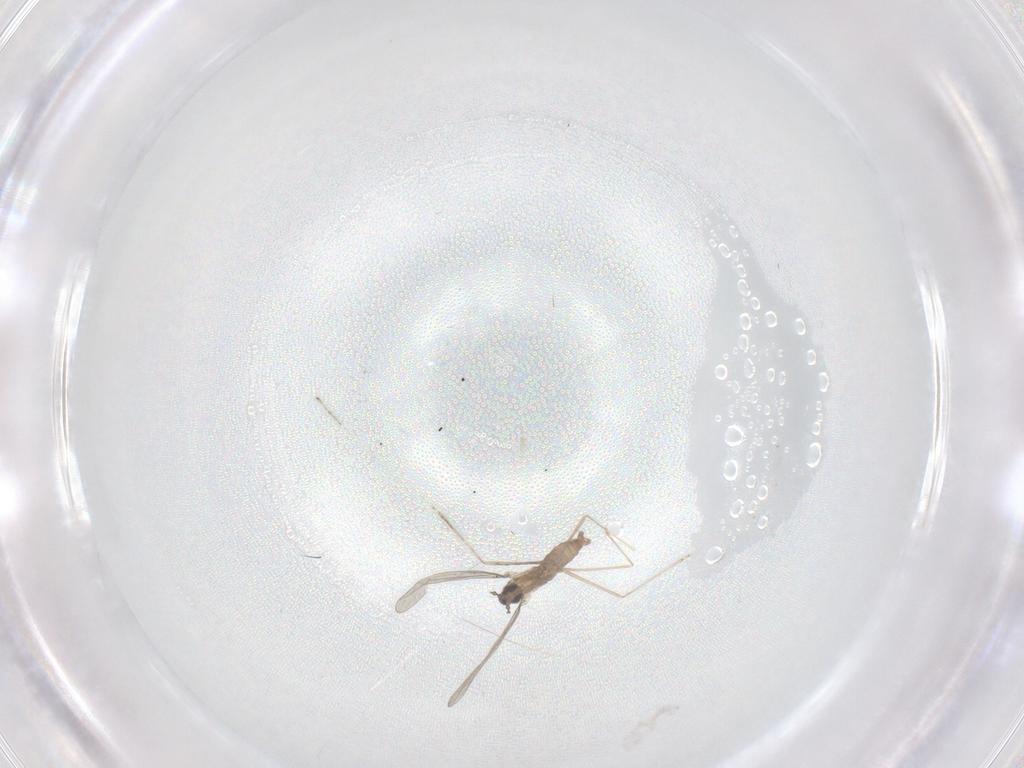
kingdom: Animalia
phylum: Arthropoda
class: Insecta
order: Diptera
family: Cecidomyiidae
